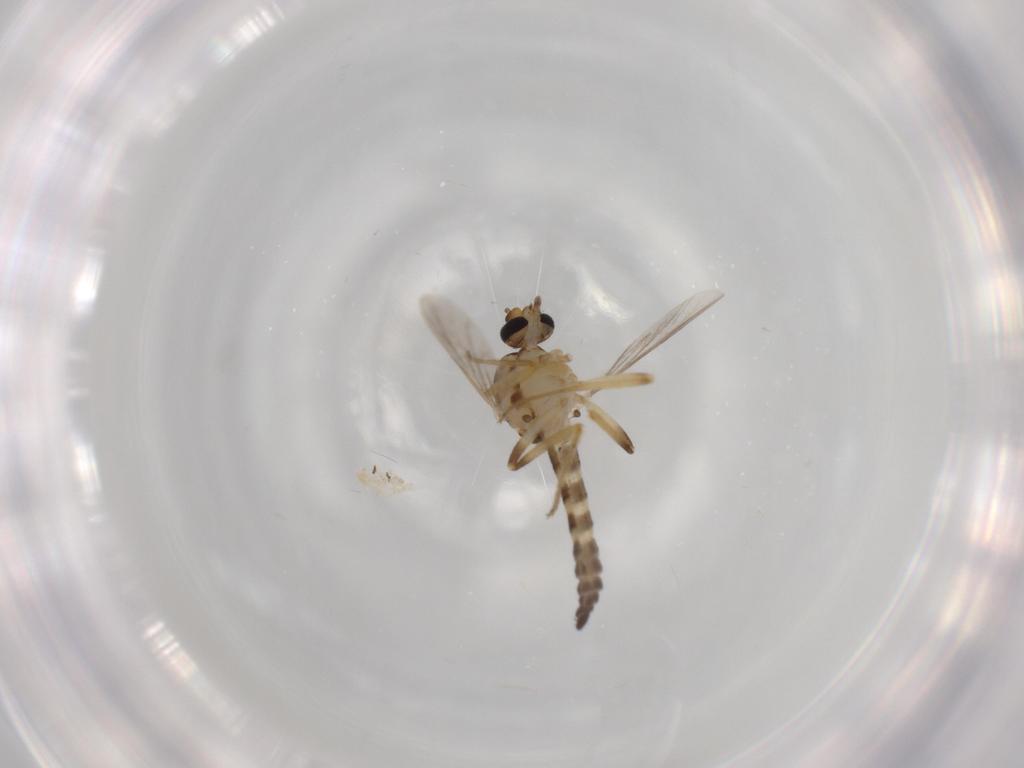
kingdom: Animalia
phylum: Arthropoda
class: Insecta
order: Diptera
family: Ceratopogonidae
